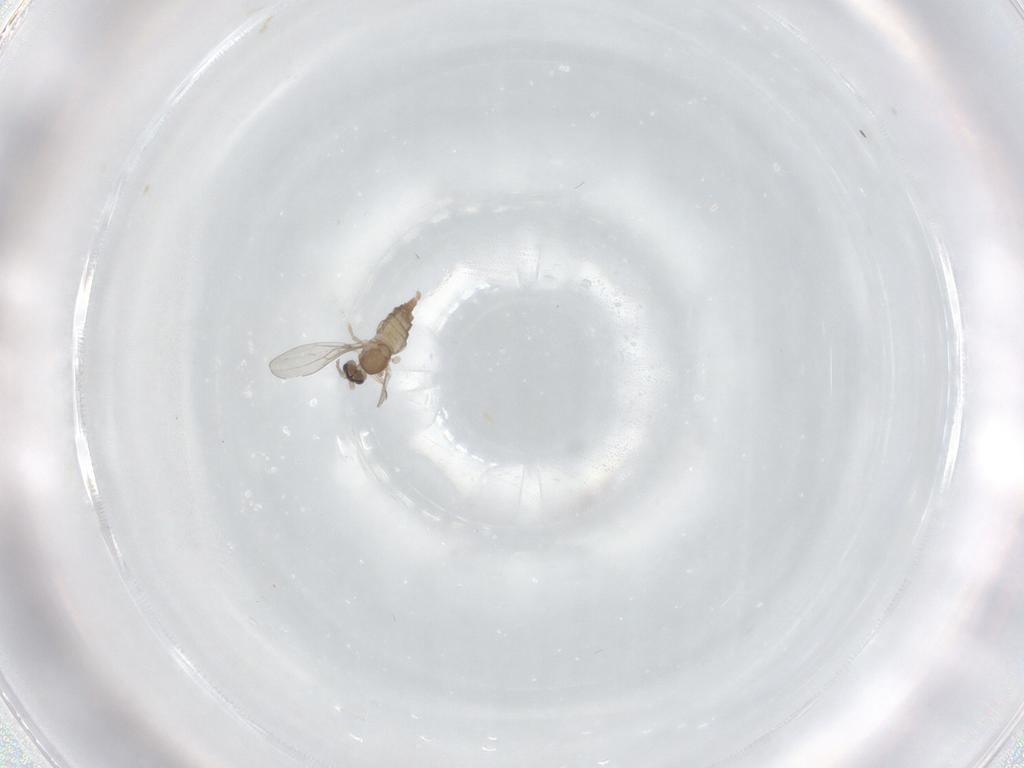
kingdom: Animalia
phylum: Arthropoda
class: Insecta
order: Diptera
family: Cecidomyiidae
